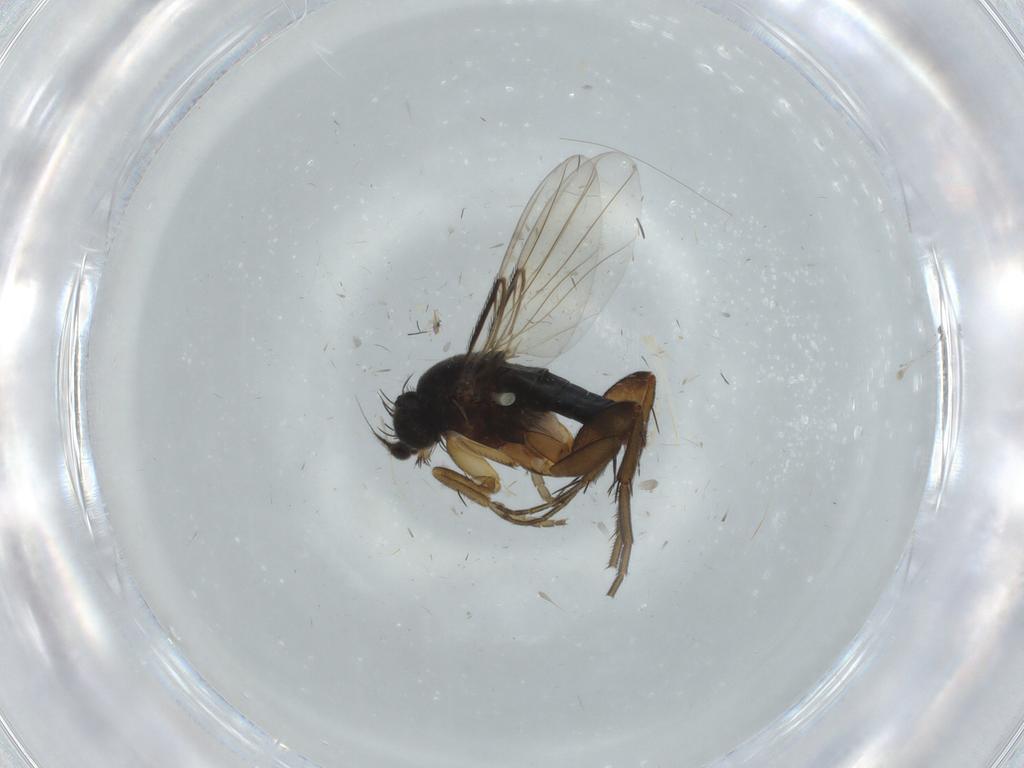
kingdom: Animalia
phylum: Arthropoda
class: Insecta
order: Diptera
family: Phoridae
